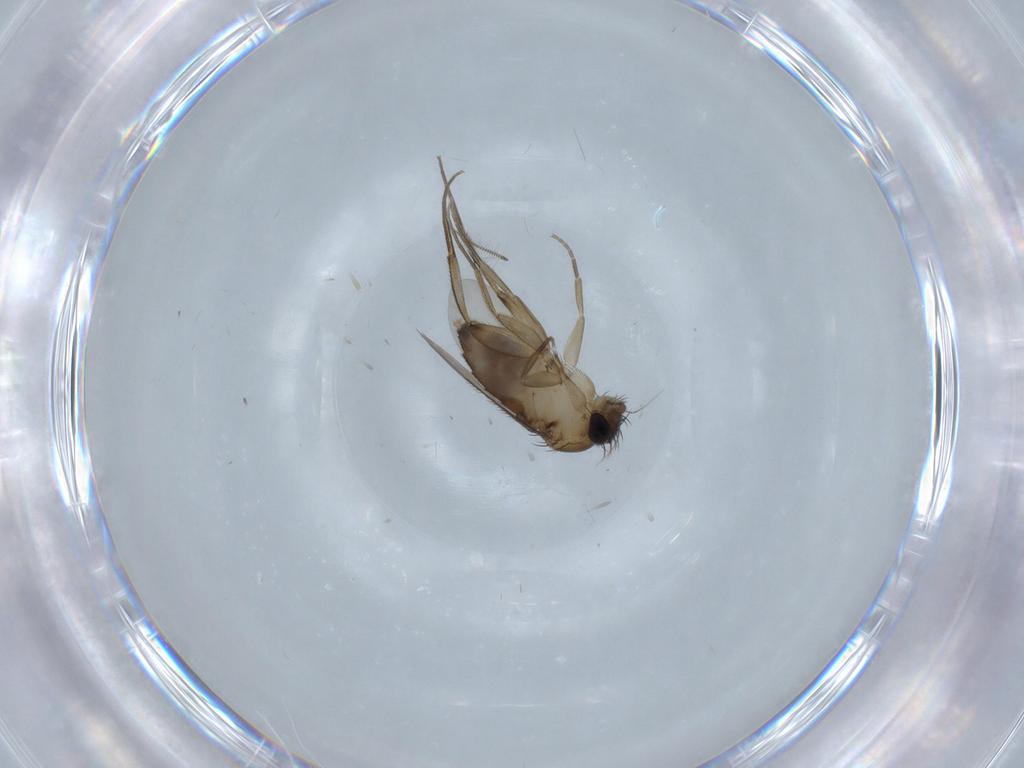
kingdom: Animalia
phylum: Arthropoda
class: Insecta
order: Diptera
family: Phoridae
